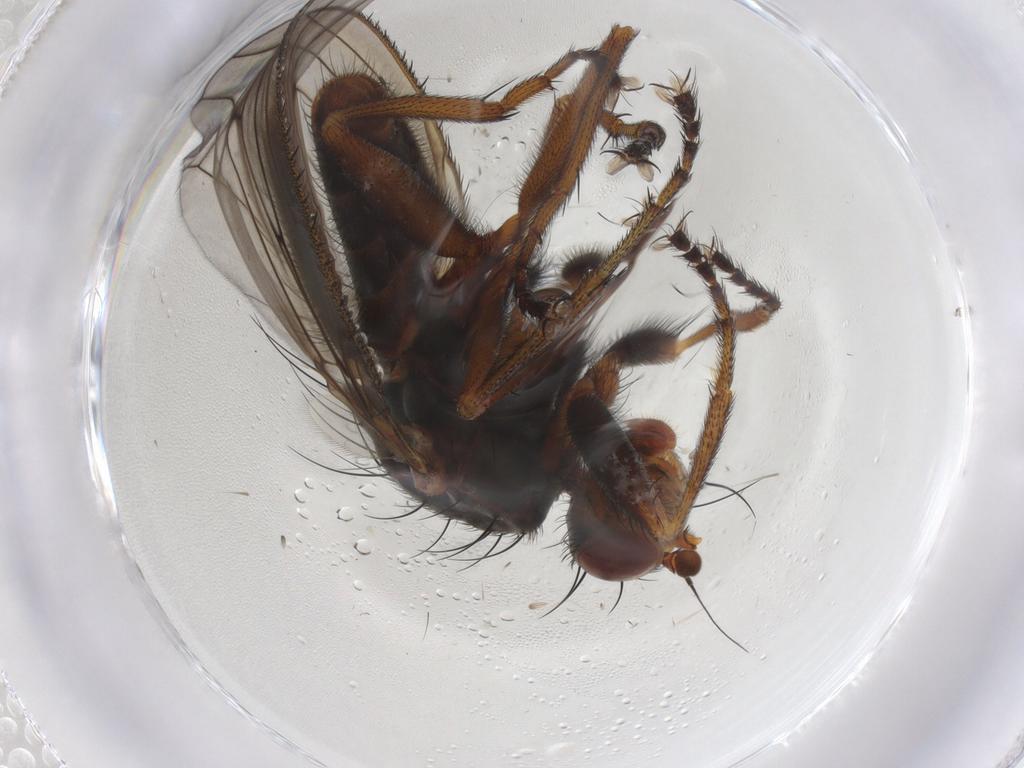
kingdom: Animalia
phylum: Arthropoda
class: Insecta
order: Diptera
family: Heleomyzidae
